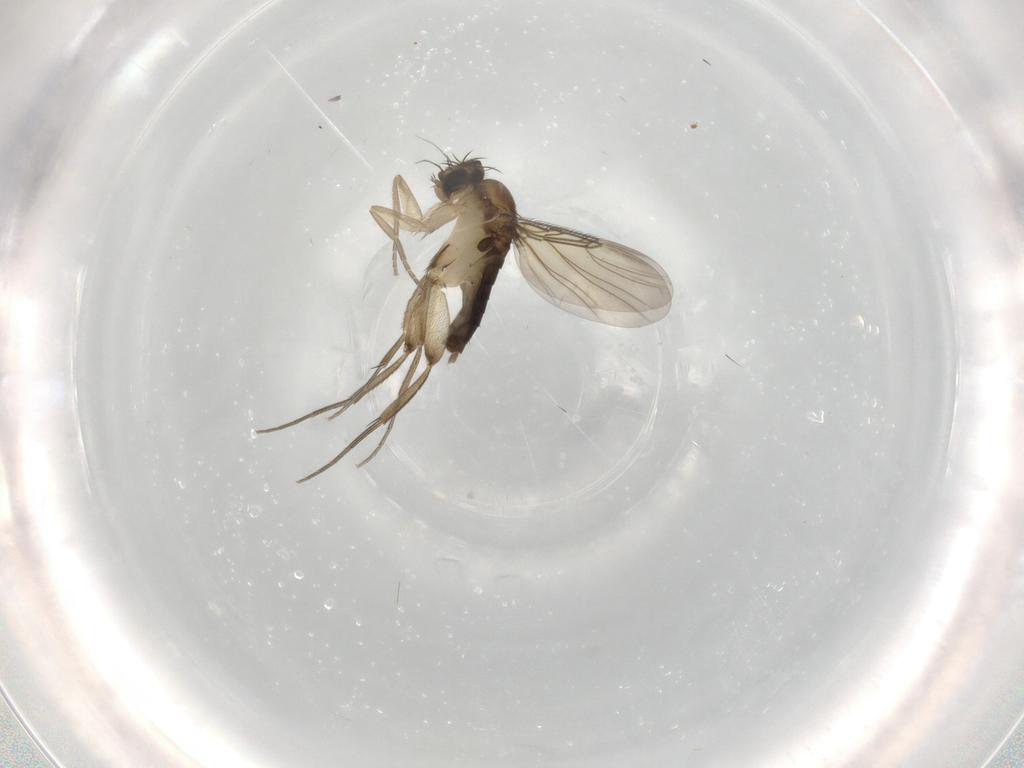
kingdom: Animalia
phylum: Arthropoda
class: Insecta
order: Diptera
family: Phoridae
